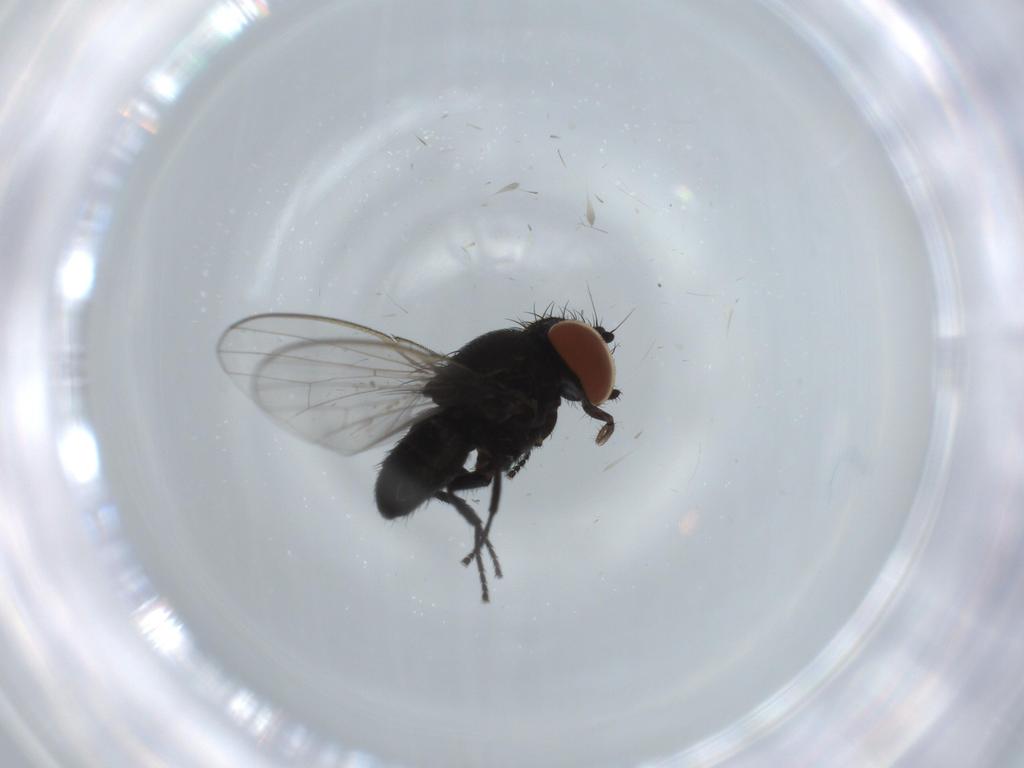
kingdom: Animalia
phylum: Arthropoda
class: Insecta
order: Diptera
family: Milichiidae
